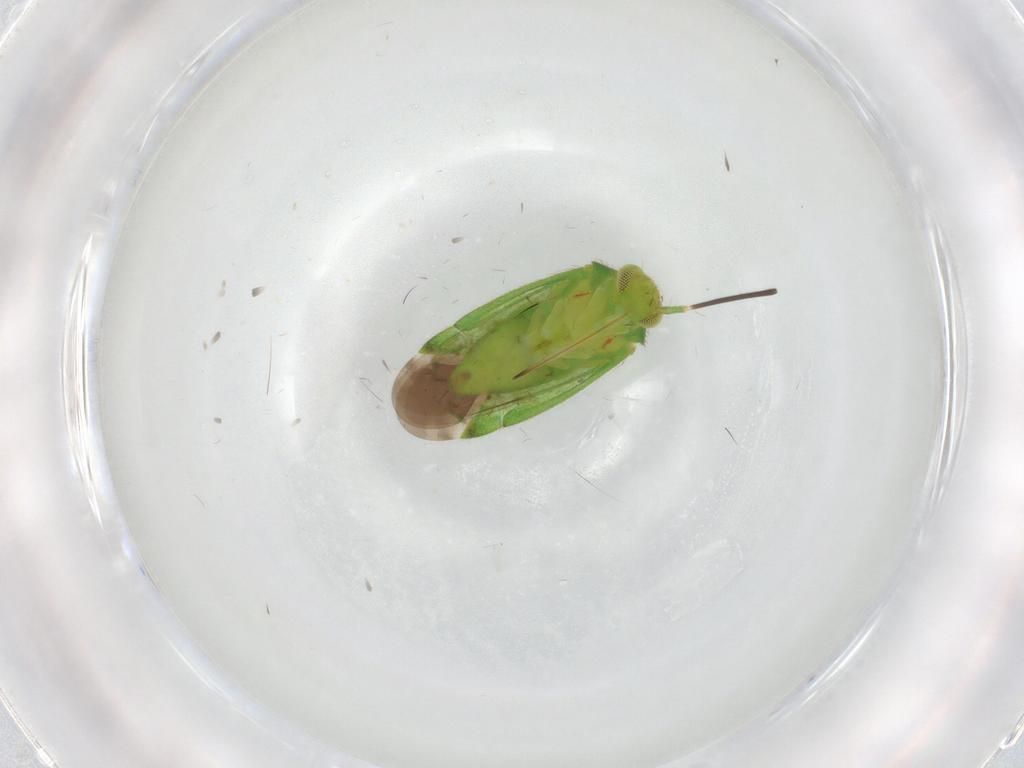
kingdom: Animalia
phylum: Arthropoda
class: Insecta
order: Hemiptera
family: Miridae
